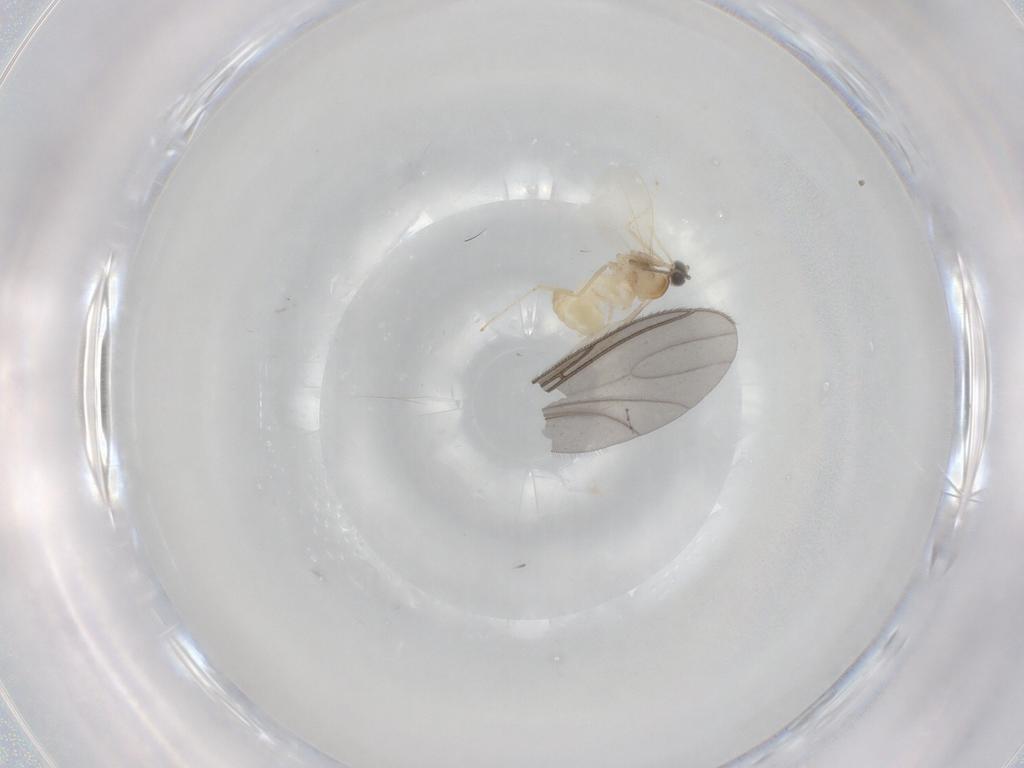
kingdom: Animalia
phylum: Arthropoda
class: Insecta
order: Diptera
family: Cecidomyiidae
